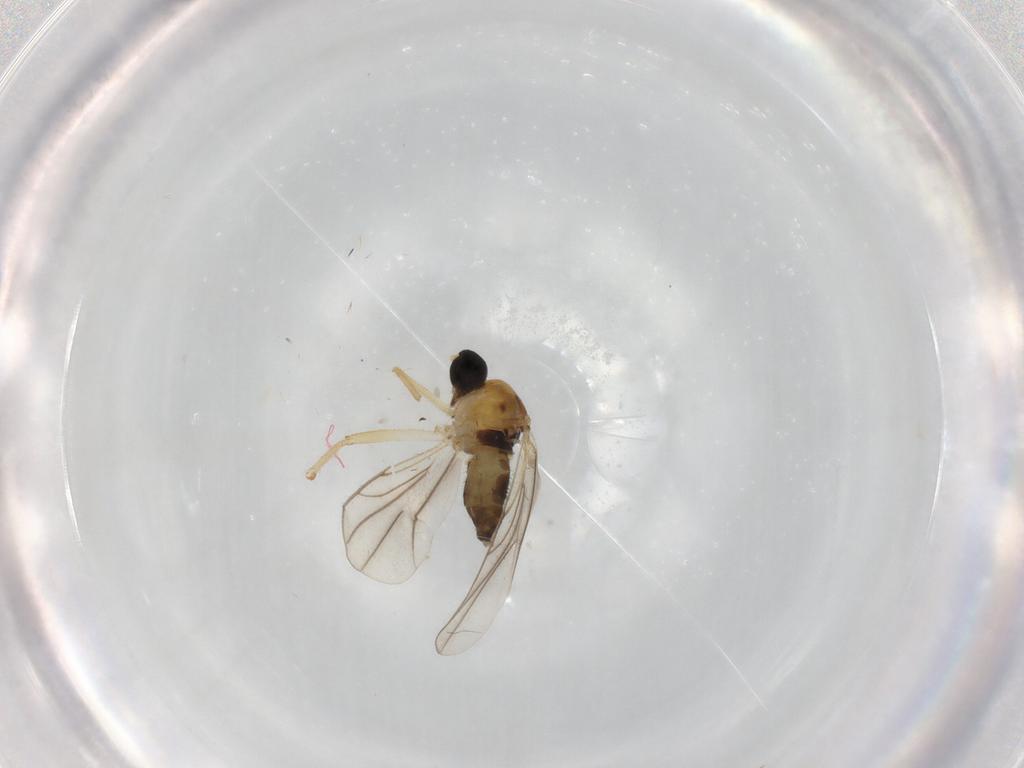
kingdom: Animalia
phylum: Arthropoda
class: Insecta
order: Diptera
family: Hybotidae
